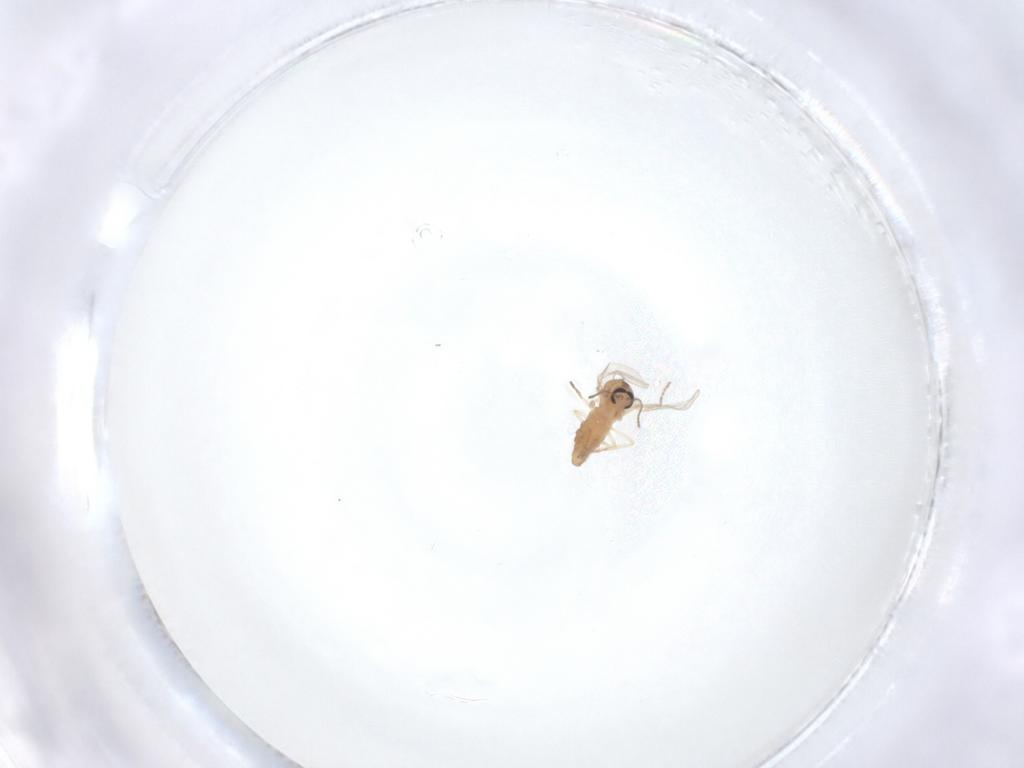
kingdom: Animalia
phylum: Arthropoda
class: Insecta
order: Diptera
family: Ceratopogonidae
